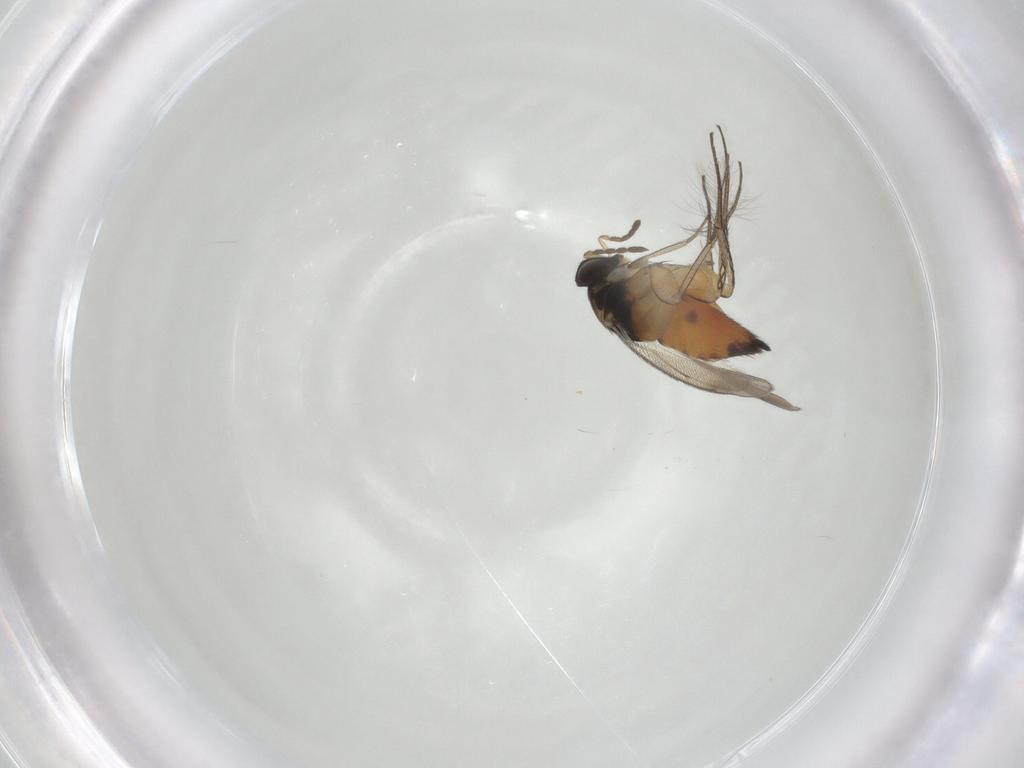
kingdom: Animalia
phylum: Arthropoda
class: Insecta
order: Hymenoptera
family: Eulophidae
